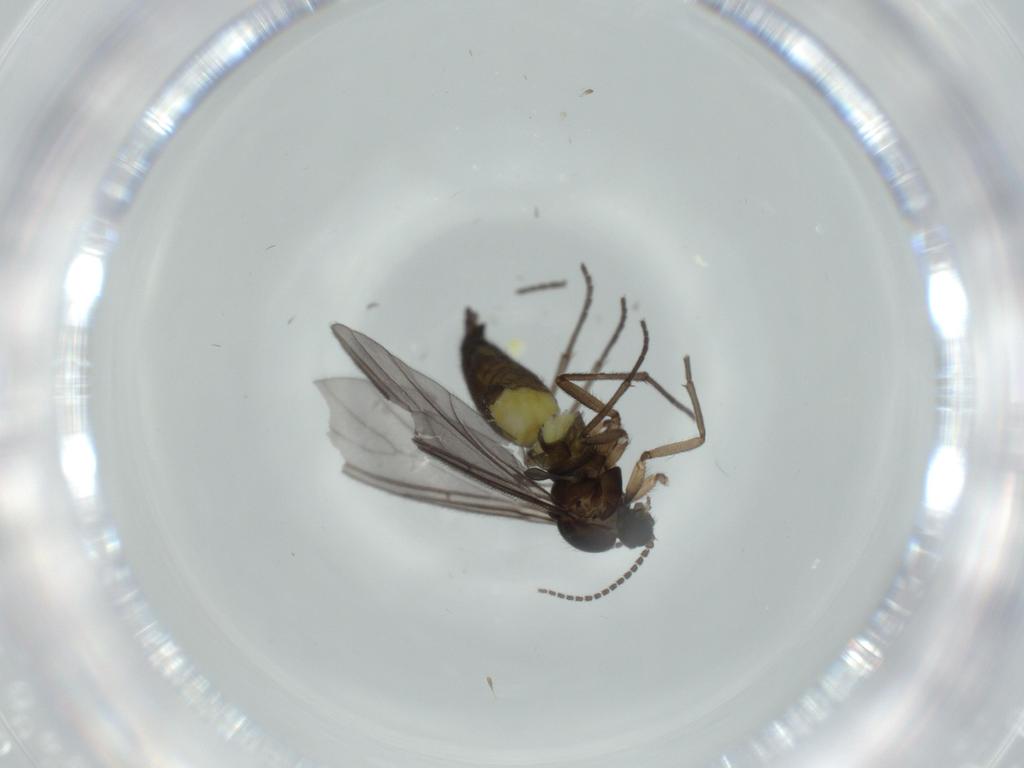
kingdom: Animalia
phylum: Arthropoda
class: Insecta
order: Diptera
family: Sciaridae
